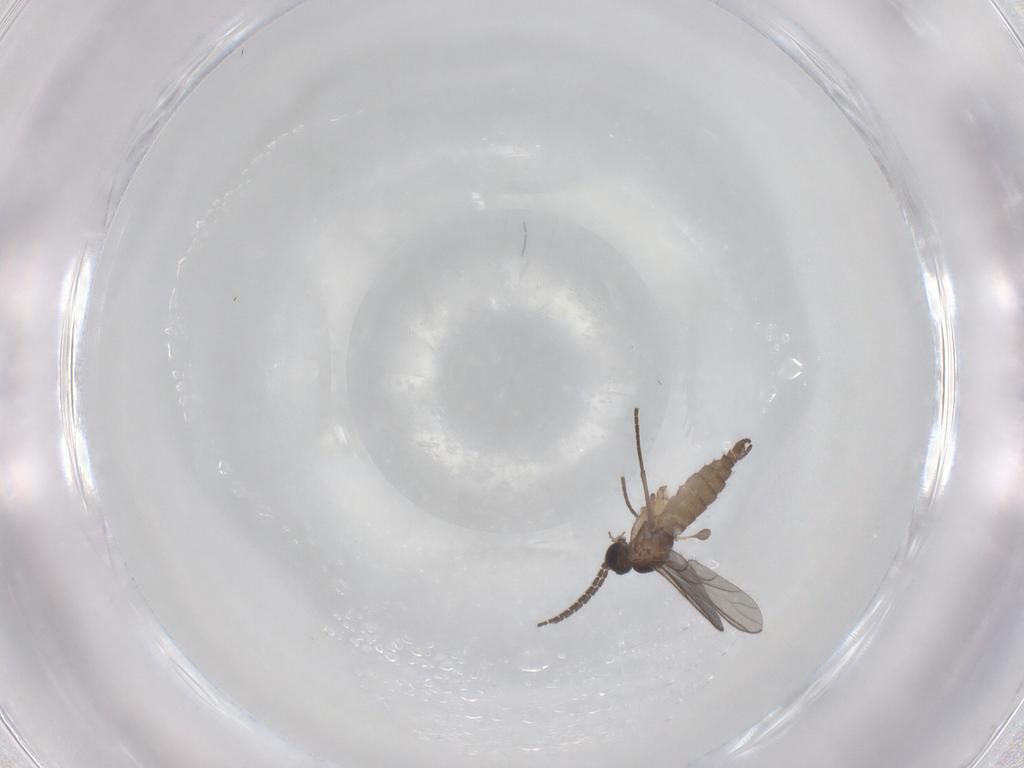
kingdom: Animalia
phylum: Arthropoda
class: Insecta
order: Diptera
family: Sciaridae
